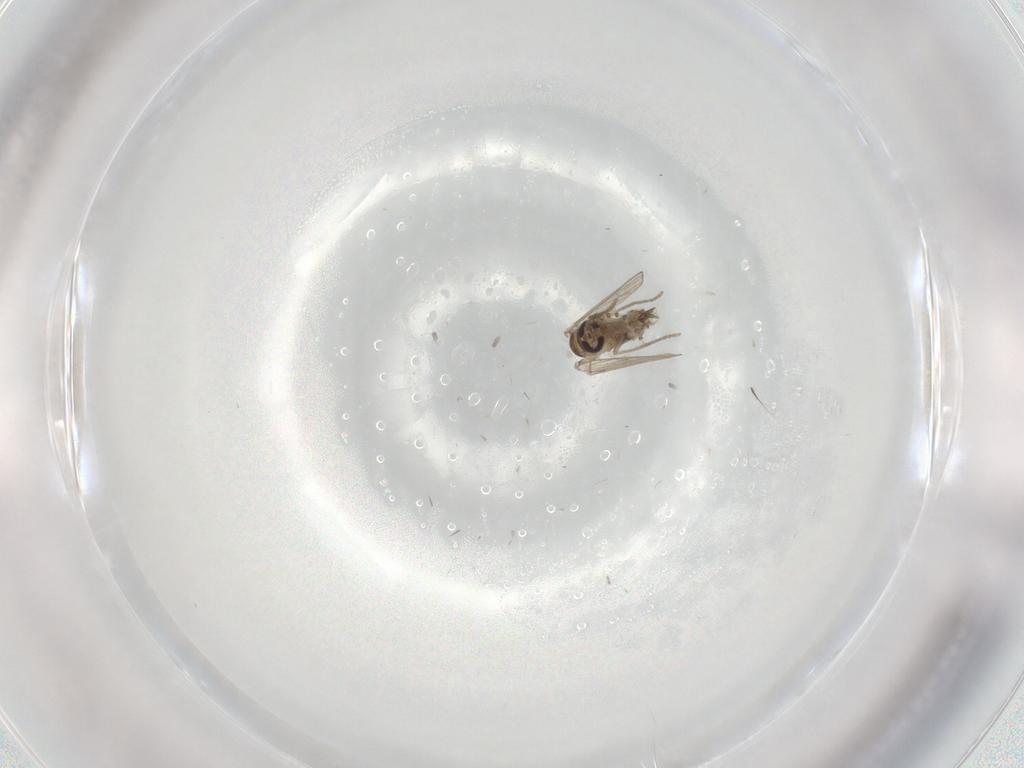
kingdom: Animalia
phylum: Arthropoda
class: Insecta
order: Diptera
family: Psychodidae
